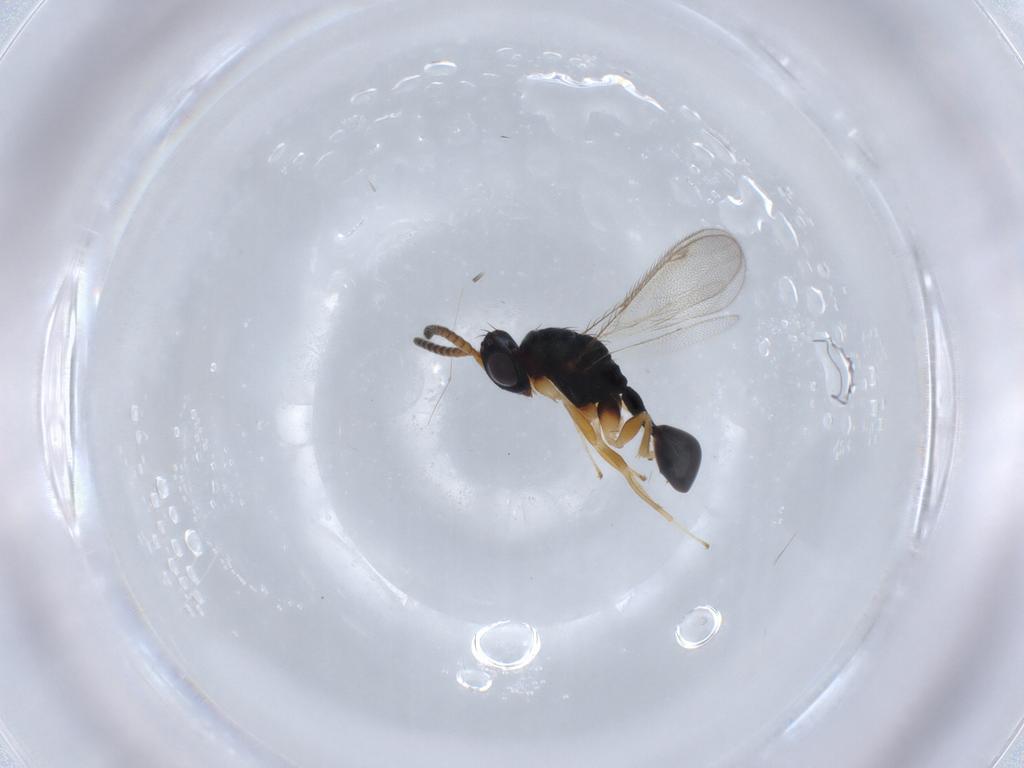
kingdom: Animalia
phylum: Arthropoda
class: Insecta
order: Hymenoptera
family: Diparidae
